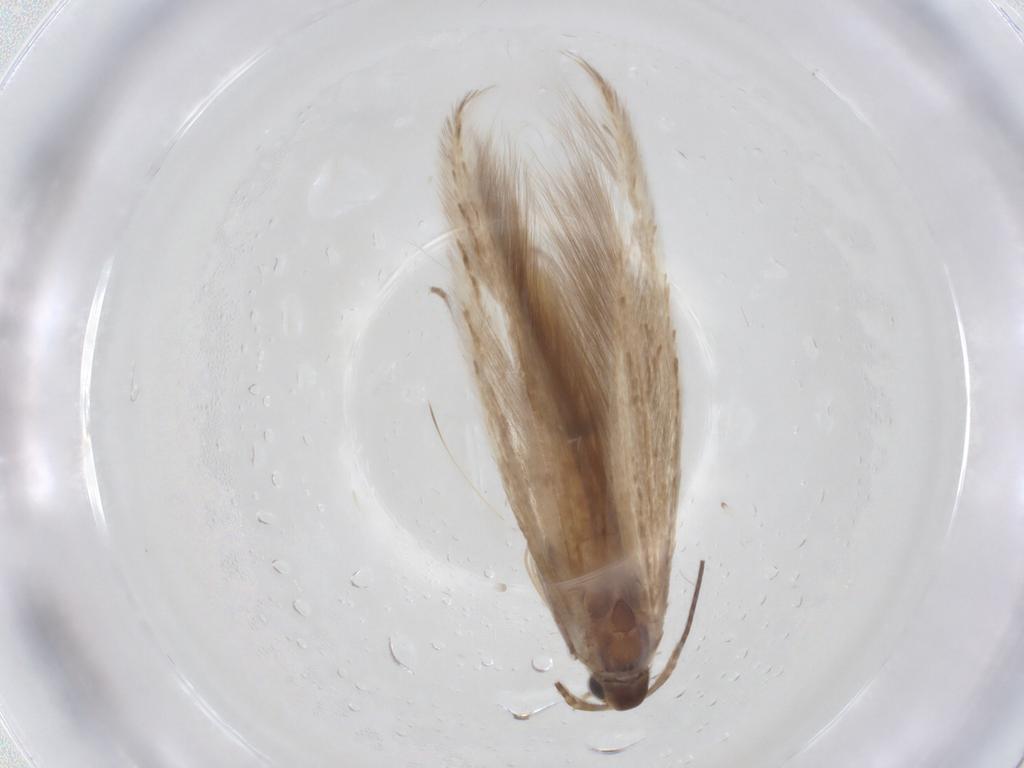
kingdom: Animalia
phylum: Arthropoda
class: Insecta
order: Lepidoptera
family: Coleophoridae
